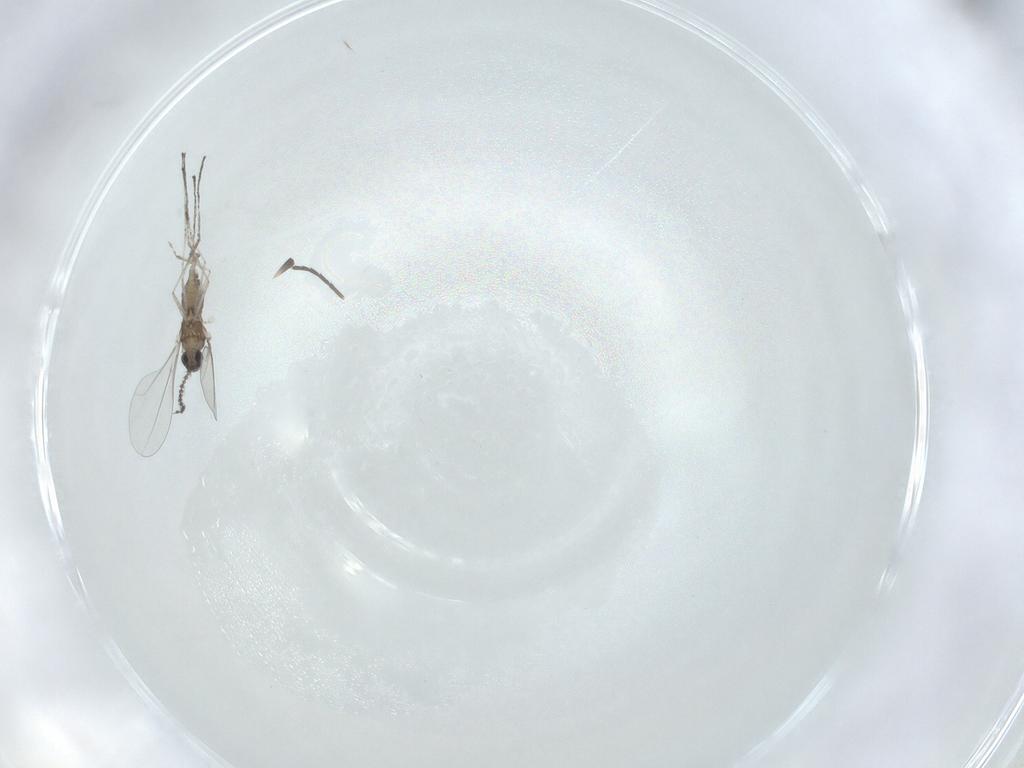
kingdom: Animalia
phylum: Arthropoda
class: Insecta
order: Diptera
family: Cecidomyiidae
